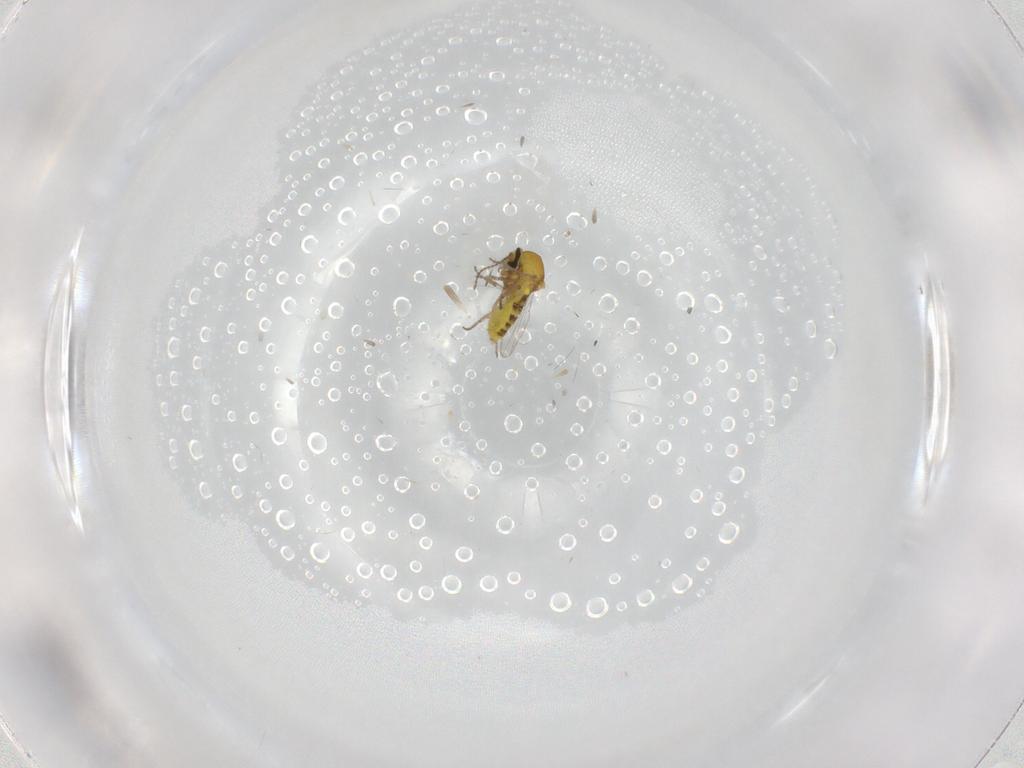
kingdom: Animalia
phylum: Arthropoda
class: Insecta
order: Diptera
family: Ceratopogonidae
